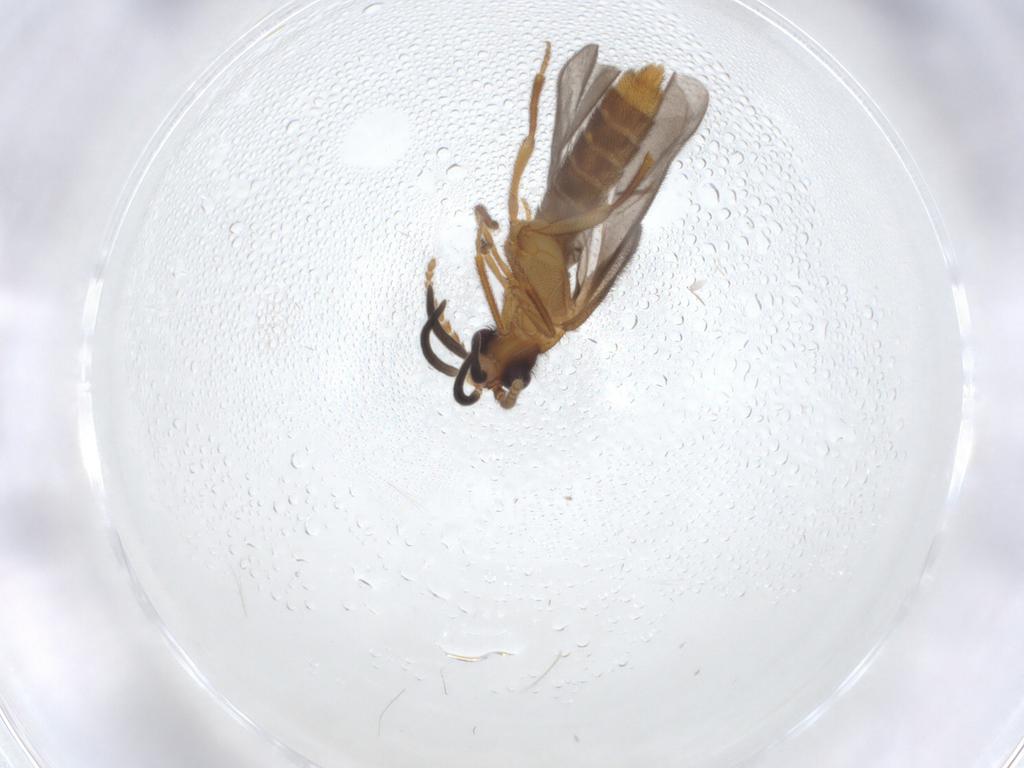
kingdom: Animalia
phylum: Arthropoda
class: Insecta
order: Coleoptera
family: Omethidae
